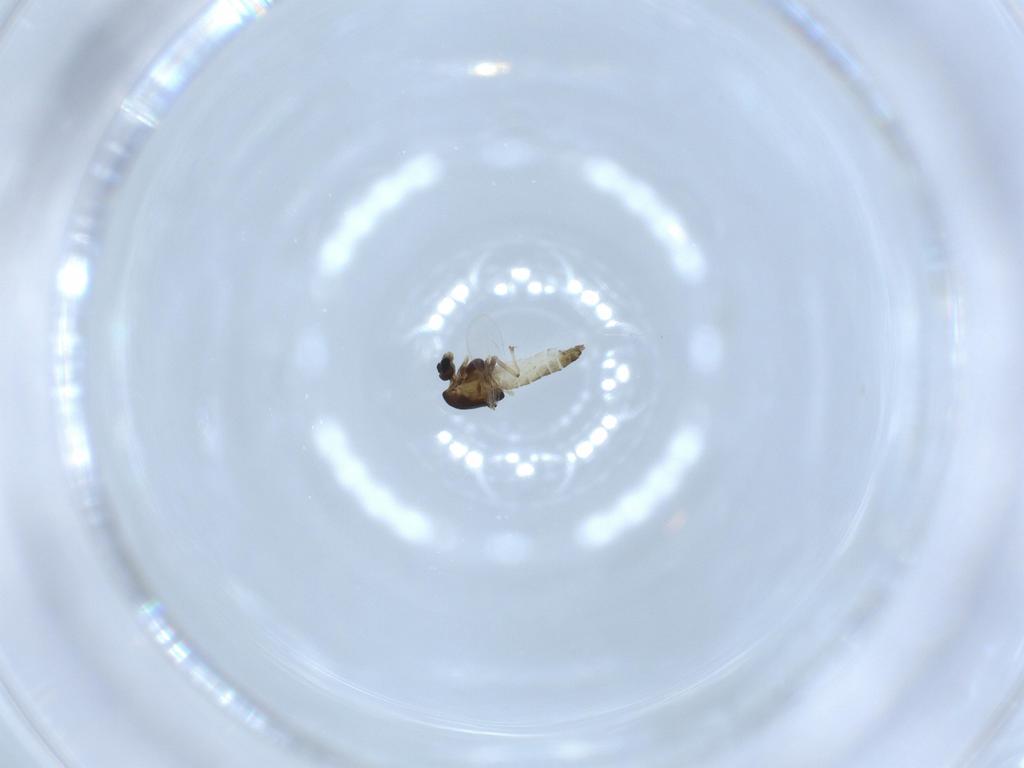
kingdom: Animalia
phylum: Arthropoda
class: Insecta
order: Diptera
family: Chironomidae
